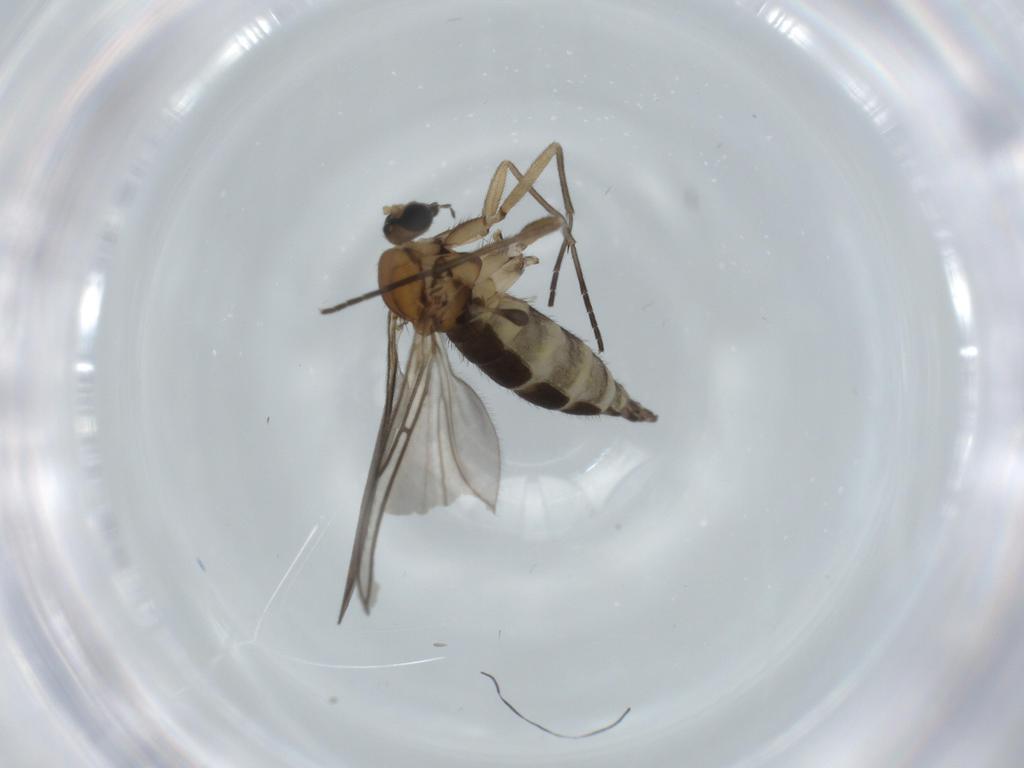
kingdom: Animalia
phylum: Arthropoda
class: Insecta
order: Diptera
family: Sciaridae
